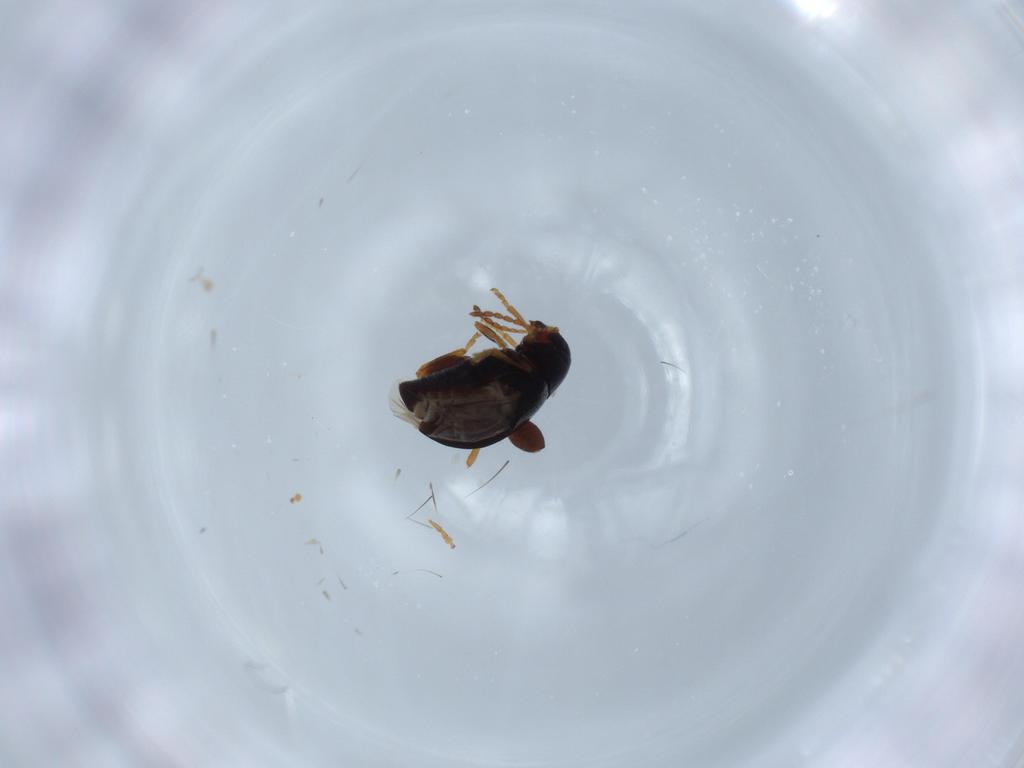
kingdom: Animalia
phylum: Arthropoda
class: Insecta
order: Coleoptera
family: Chrysomelidae
